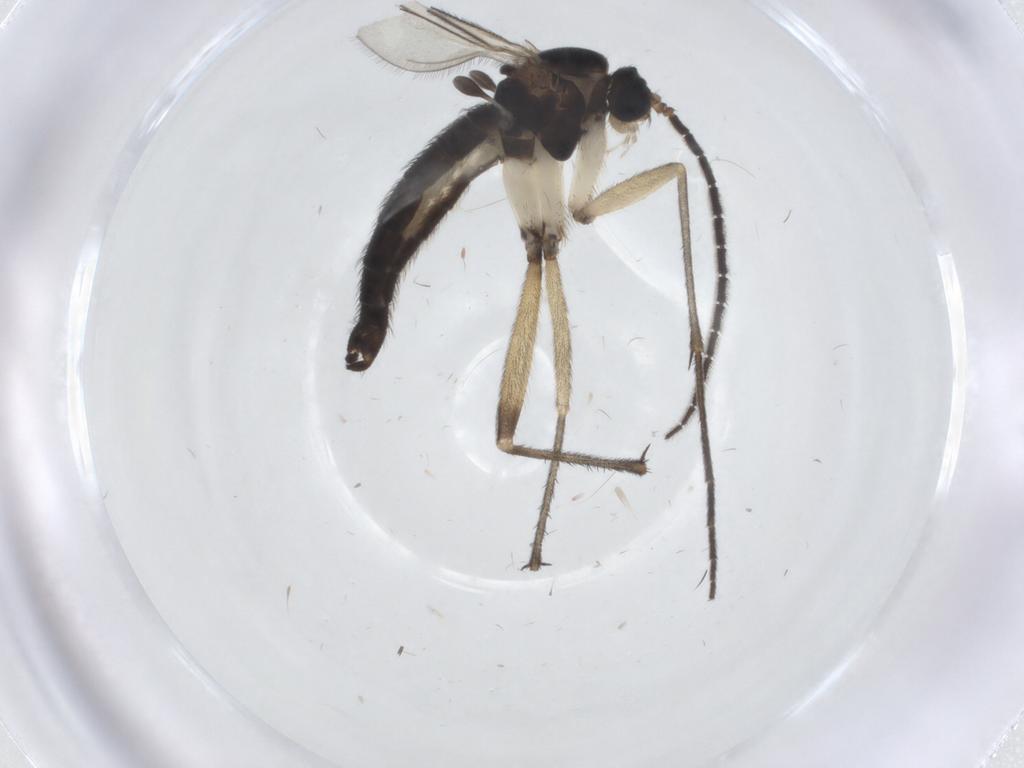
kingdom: Animalia
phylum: Arthropoda
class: Insecta
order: Diptera
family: Sciaridae
